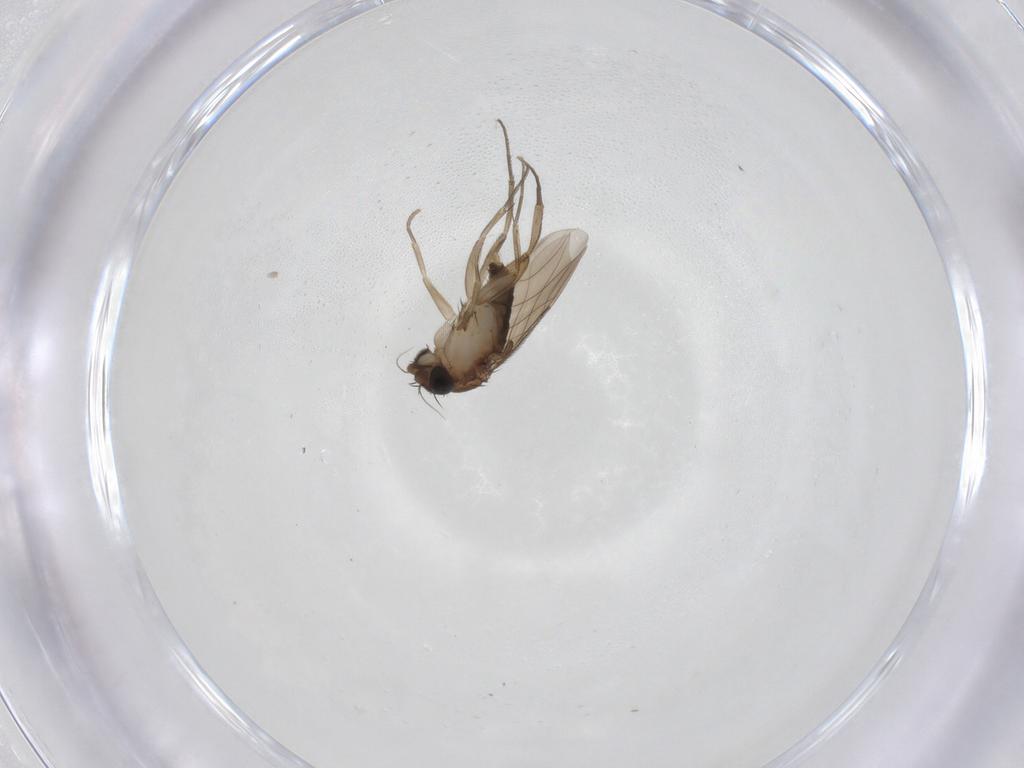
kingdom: Animalia
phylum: Arthropoda
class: Insecta
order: Diptera
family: Phoridae
